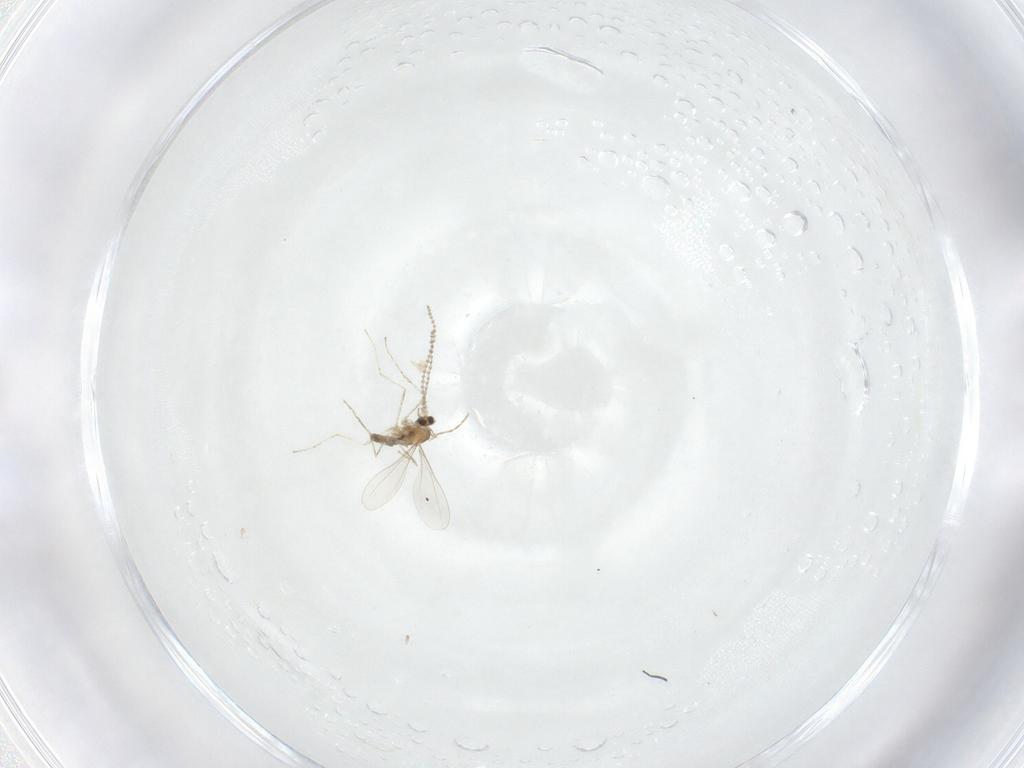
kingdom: Animalia
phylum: Arthropoda
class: Insecta
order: Diptera
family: Cecidomyiidae
